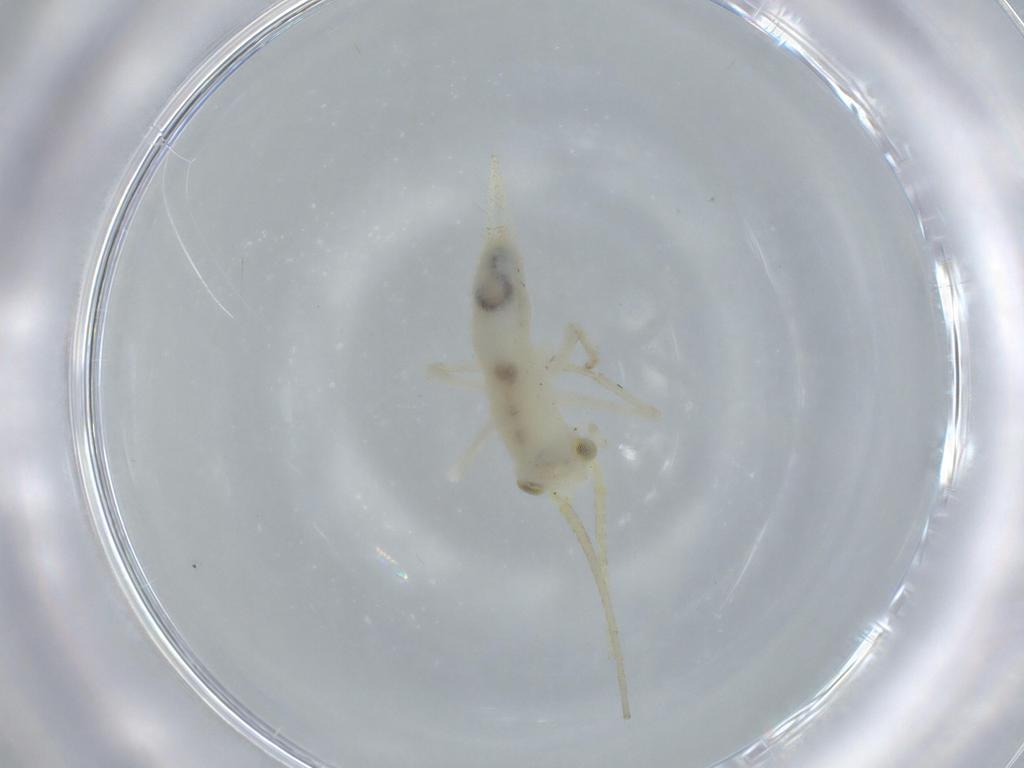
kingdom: Animalia
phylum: Arthropoda
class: Insecta
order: Orthoptera
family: Trigonidiidae
